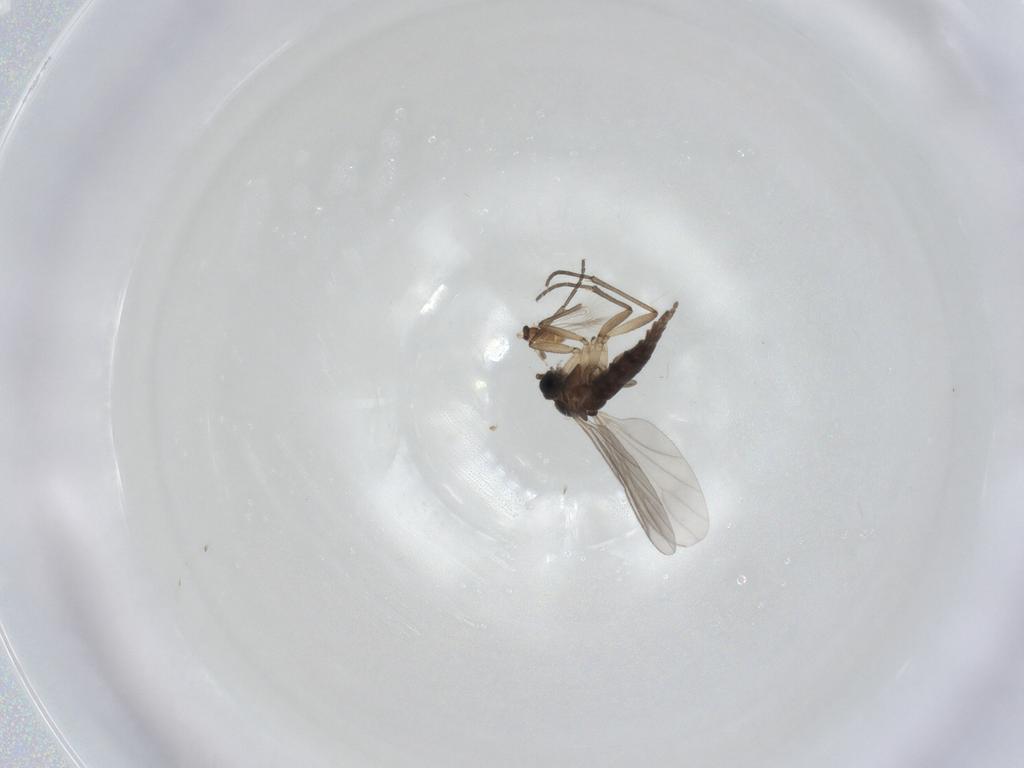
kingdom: Animalia
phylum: Arthropoda
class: Insecta
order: Diptera
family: Sciaridae
